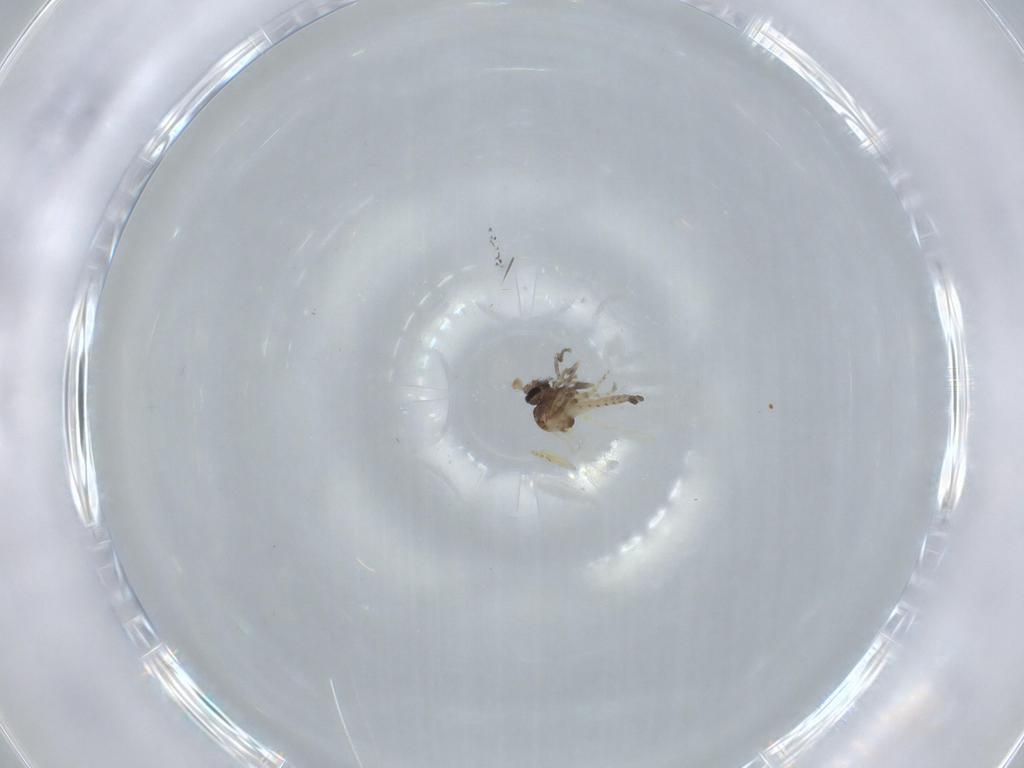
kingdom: Animalia
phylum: Arthropoda
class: Insecta
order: Diptera
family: Ceratopogonidae
